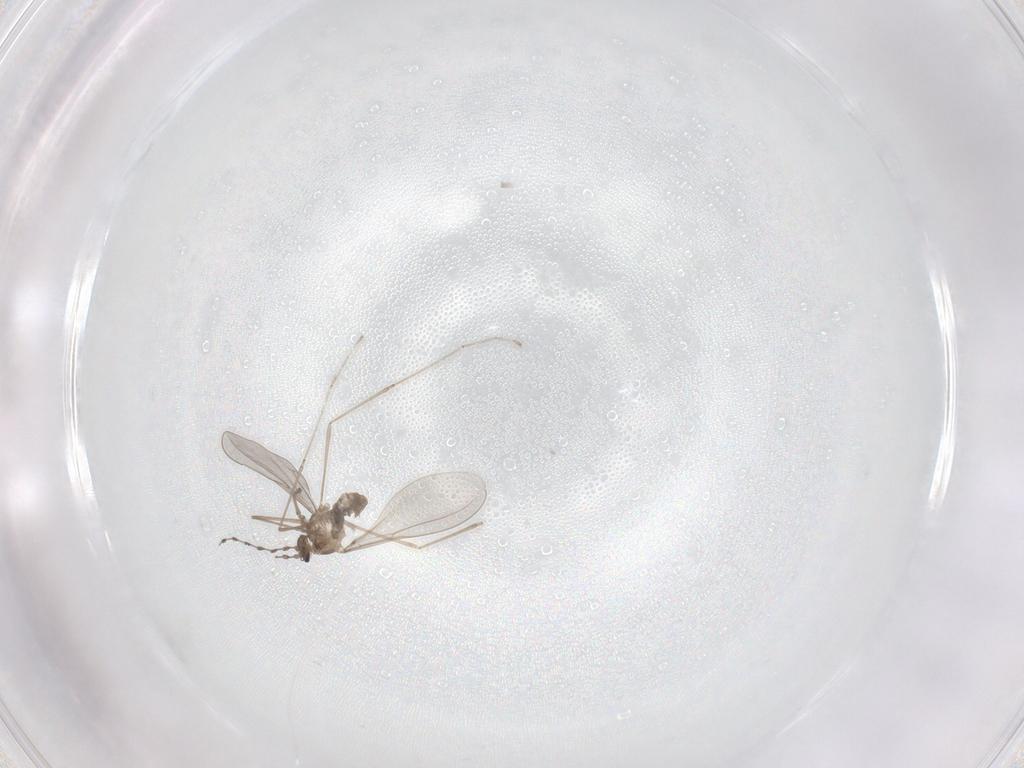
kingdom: Animalia
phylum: Arthropoda
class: Insecta
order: Diptera
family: Cecidomyiidae
